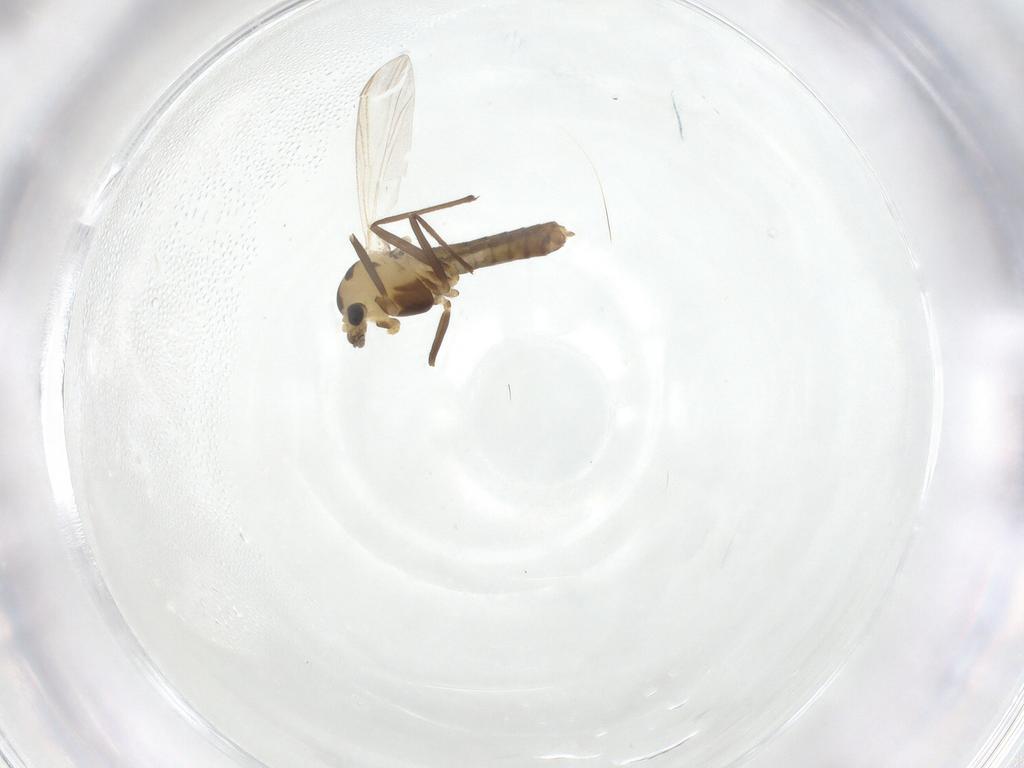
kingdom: Animalia
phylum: Arthropoda
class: Insecta
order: Diptera
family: Chironomidae
